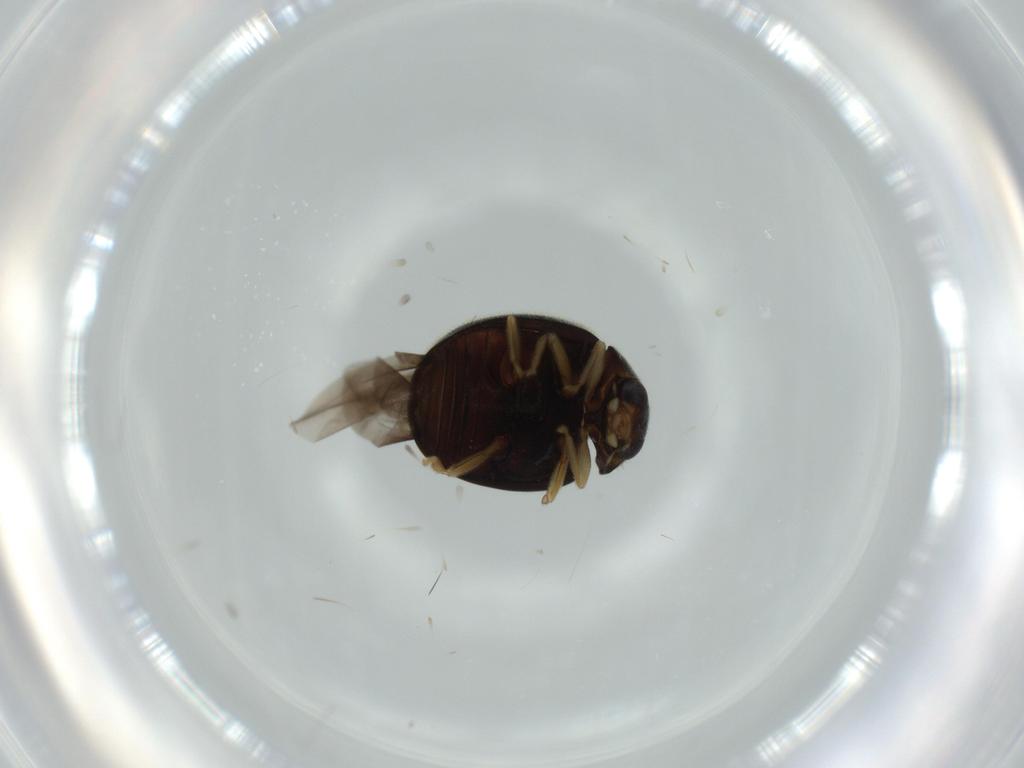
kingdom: Animalia
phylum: Arthropoda
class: Insecta
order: Coleoptera
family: Coccinellidae
